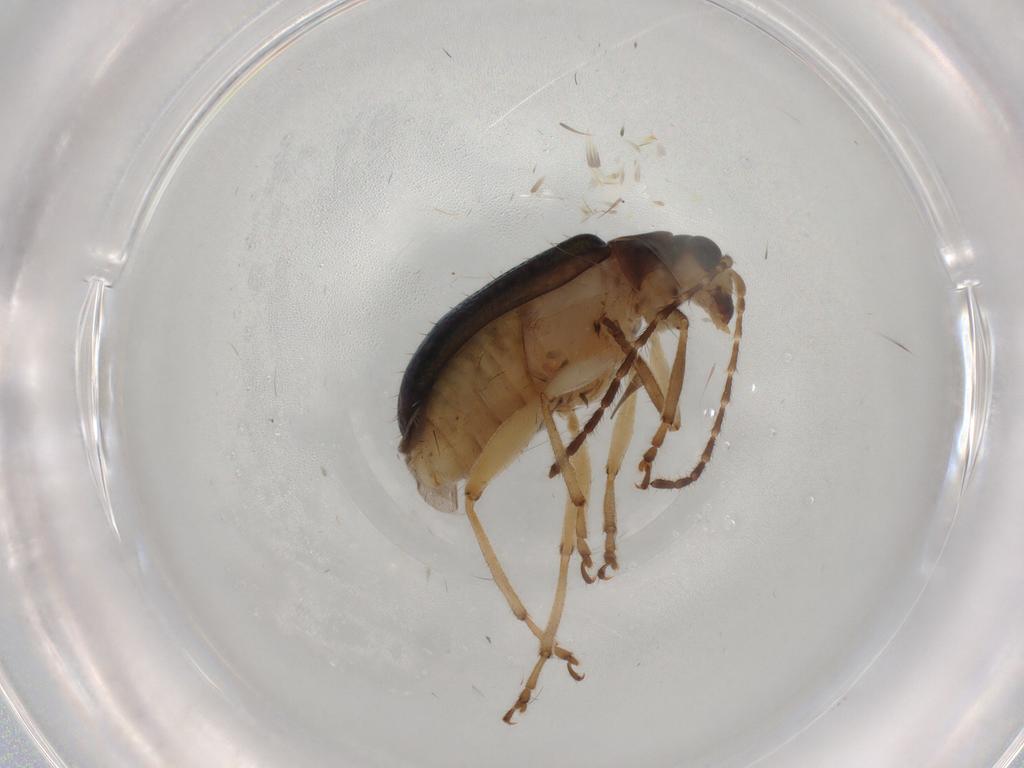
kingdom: Animalia
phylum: Arthropoda
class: Insecta
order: Coleoptera
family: Chrysomelidae
